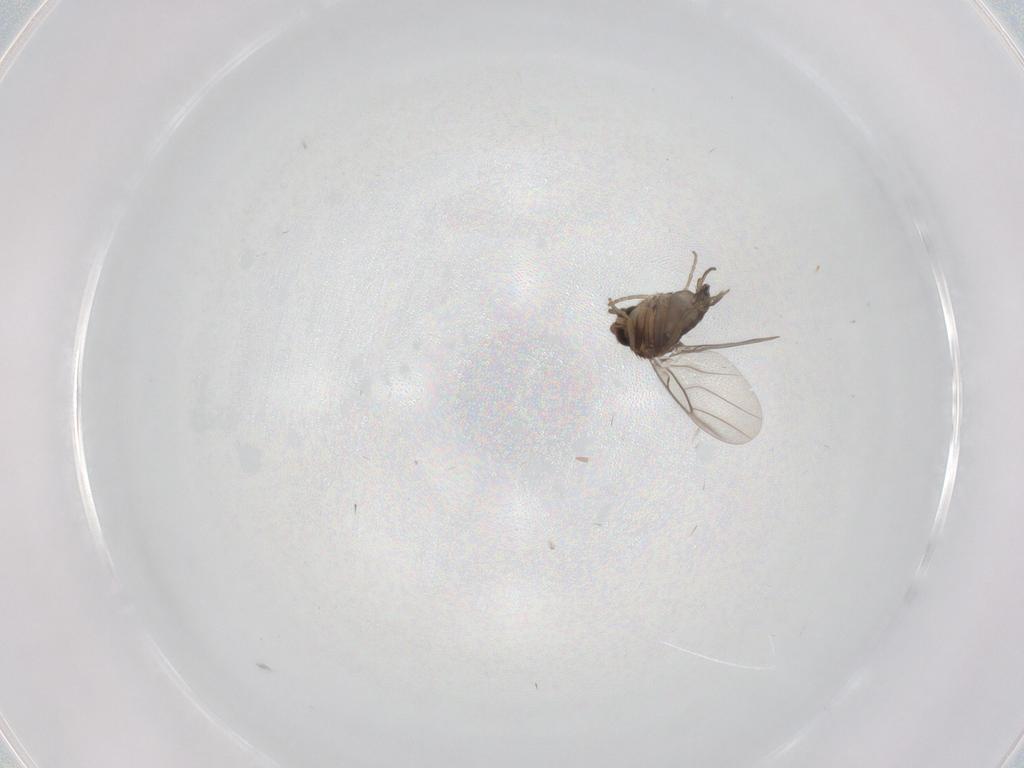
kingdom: Animalia
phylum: Arthropoda
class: Insecta
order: Diptera
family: Phoridae
